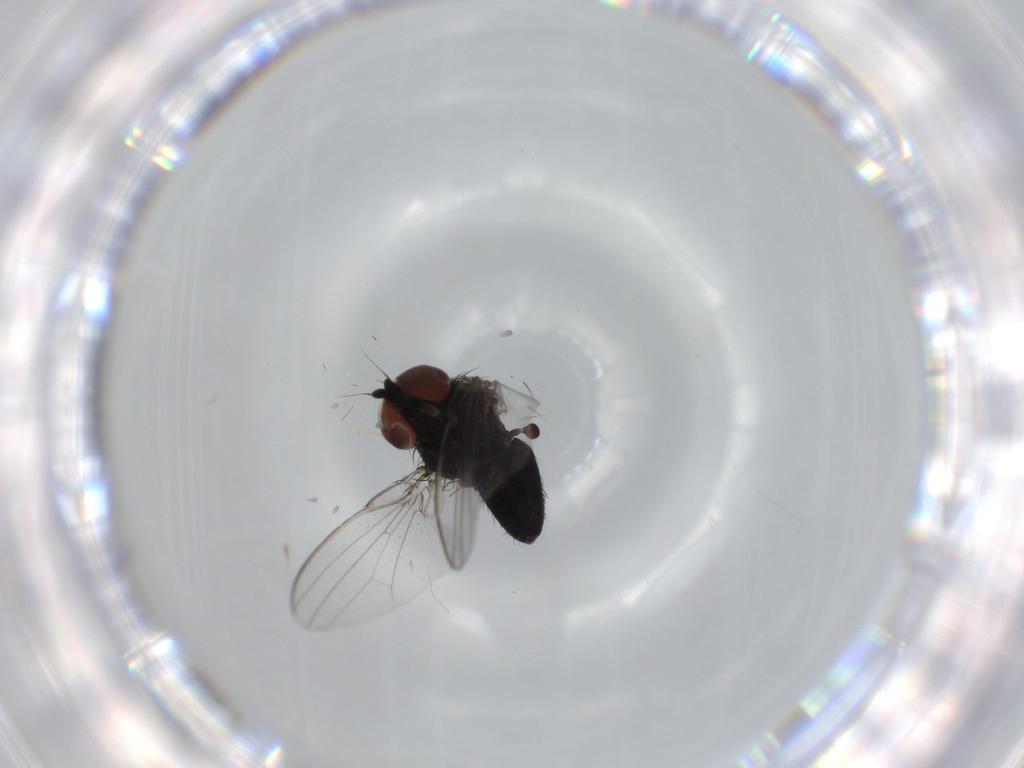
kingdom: Animalia
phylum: Arthropoda
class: Insecta
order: Diptera
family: Milichiidae
